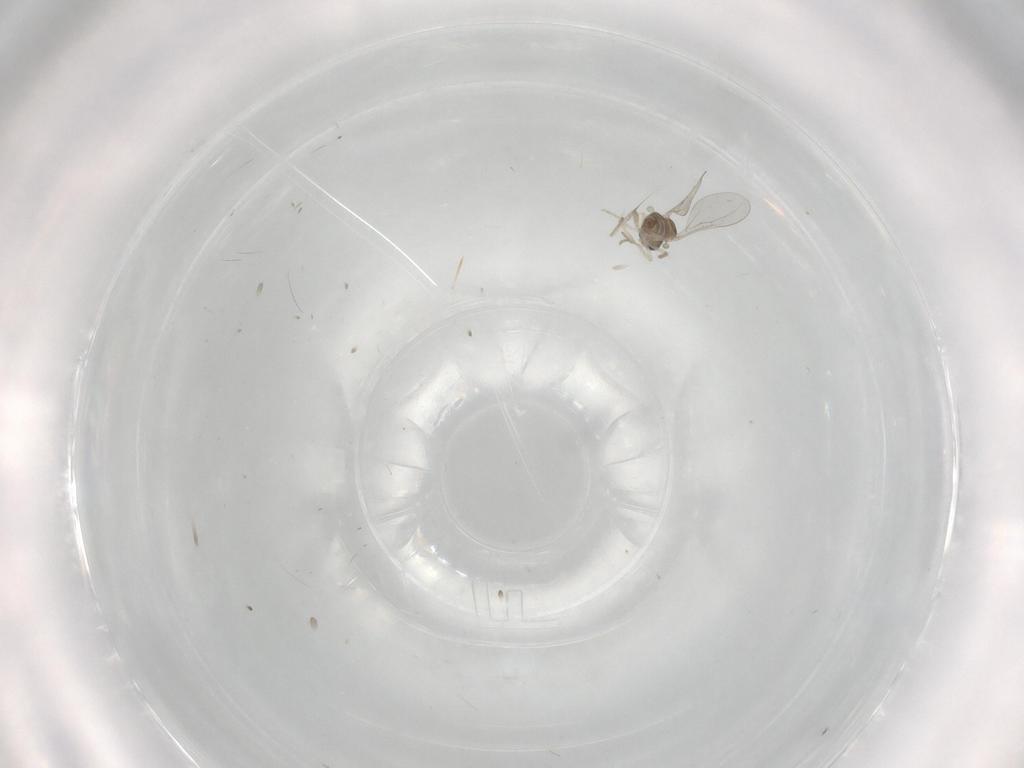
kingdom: Animalia
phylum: Arthropoda
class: Insecta
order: Diptera
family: Cecidomyiidae
